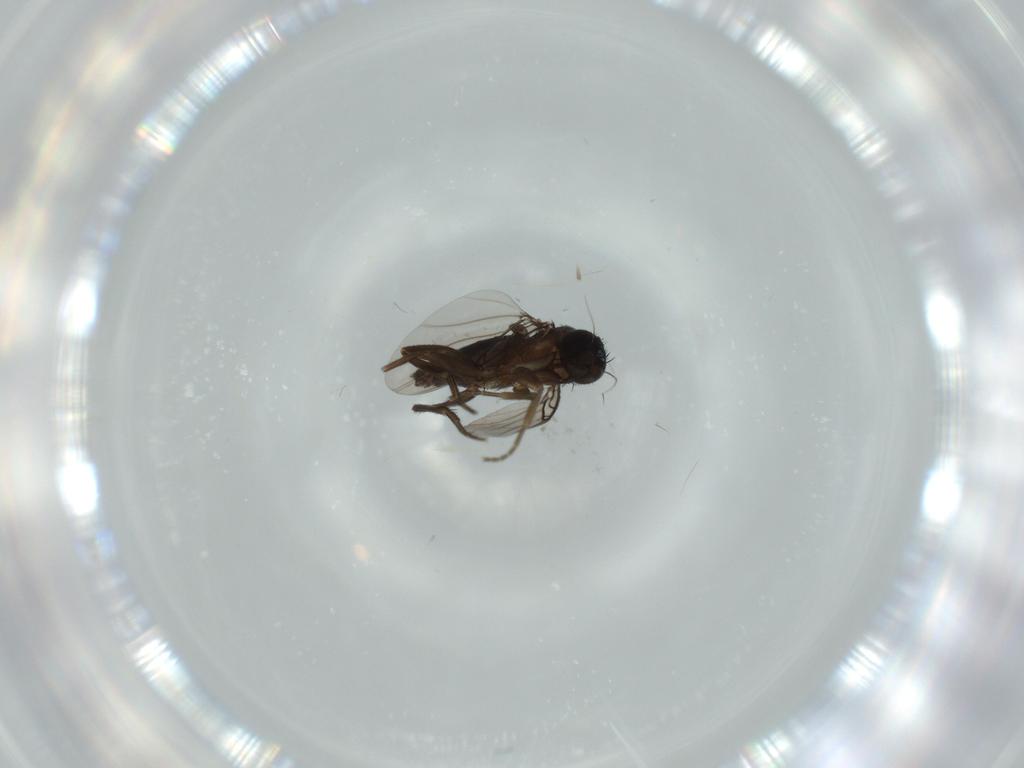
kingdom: Animalia
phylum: Arthropoda
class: Insecta
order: Diptera
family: Phoridae
